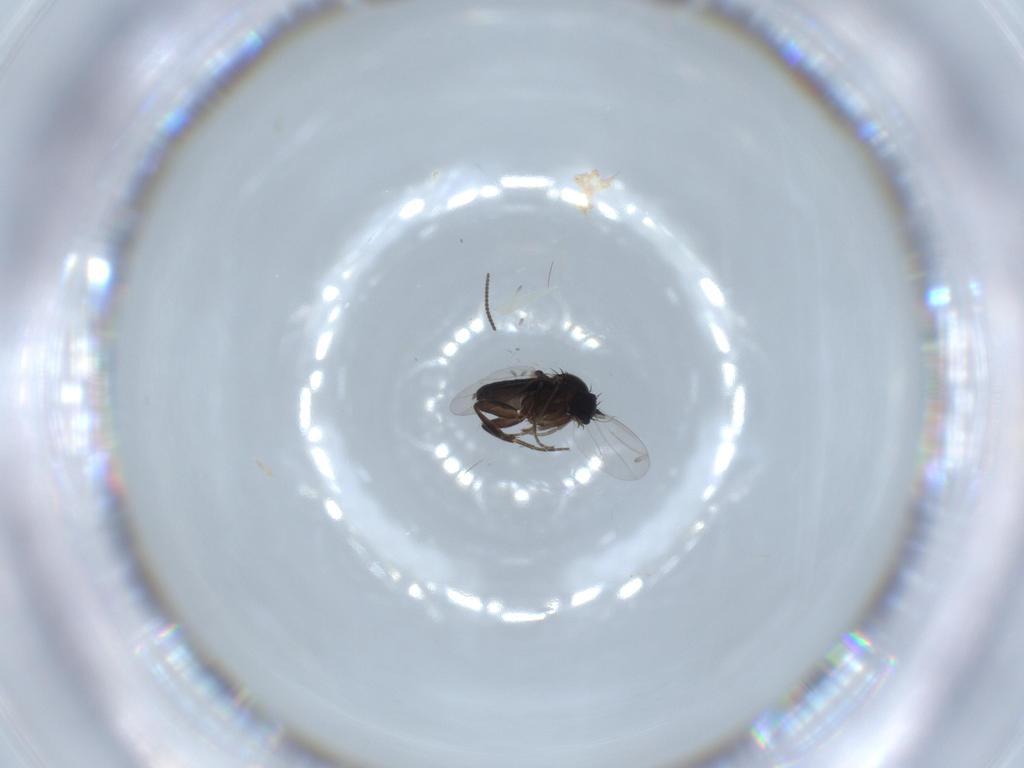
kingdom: Animalia
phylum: Arthropoda
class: Insecta
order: Diptera
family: Phoridae
